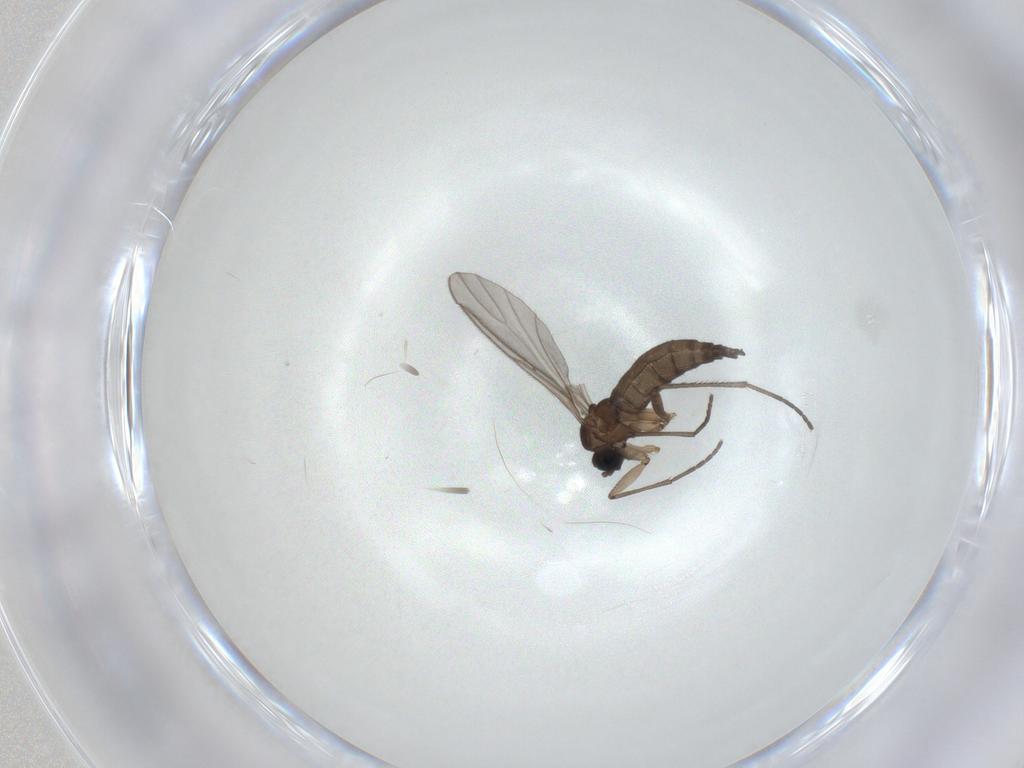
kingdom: Animalia
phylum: Arthropoda
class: Insecta
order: Diptera
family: Sciaridae
